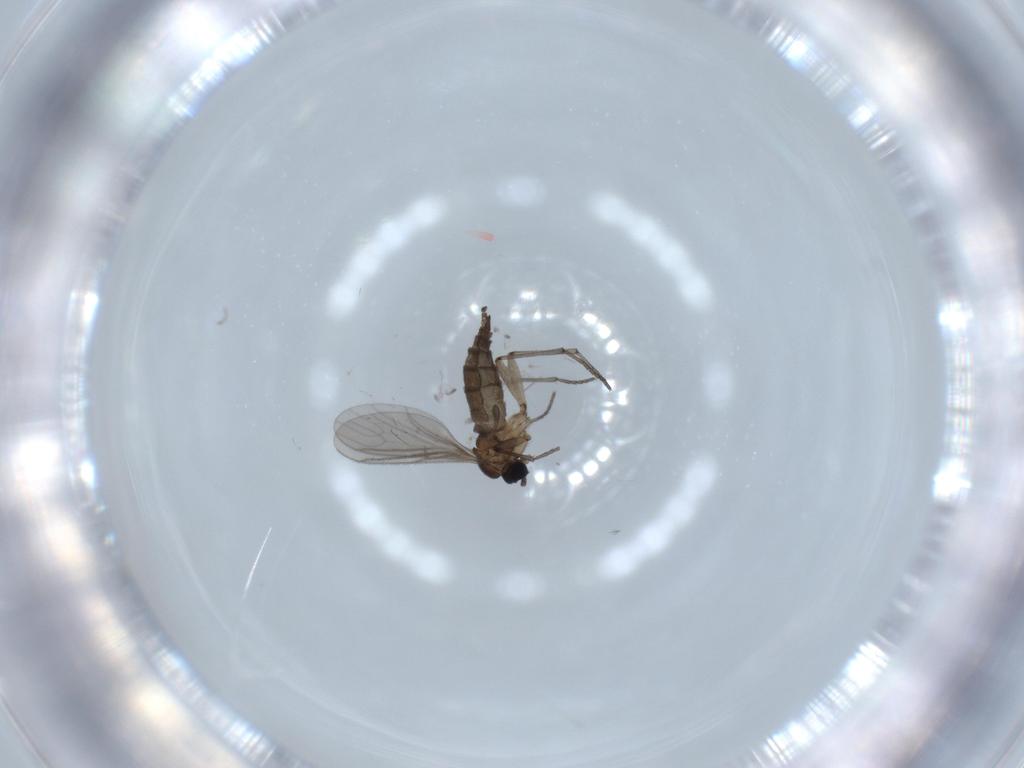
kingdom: Animalia
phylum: Arthropoda
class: Insecta
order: Diptera
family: Sciaridae
